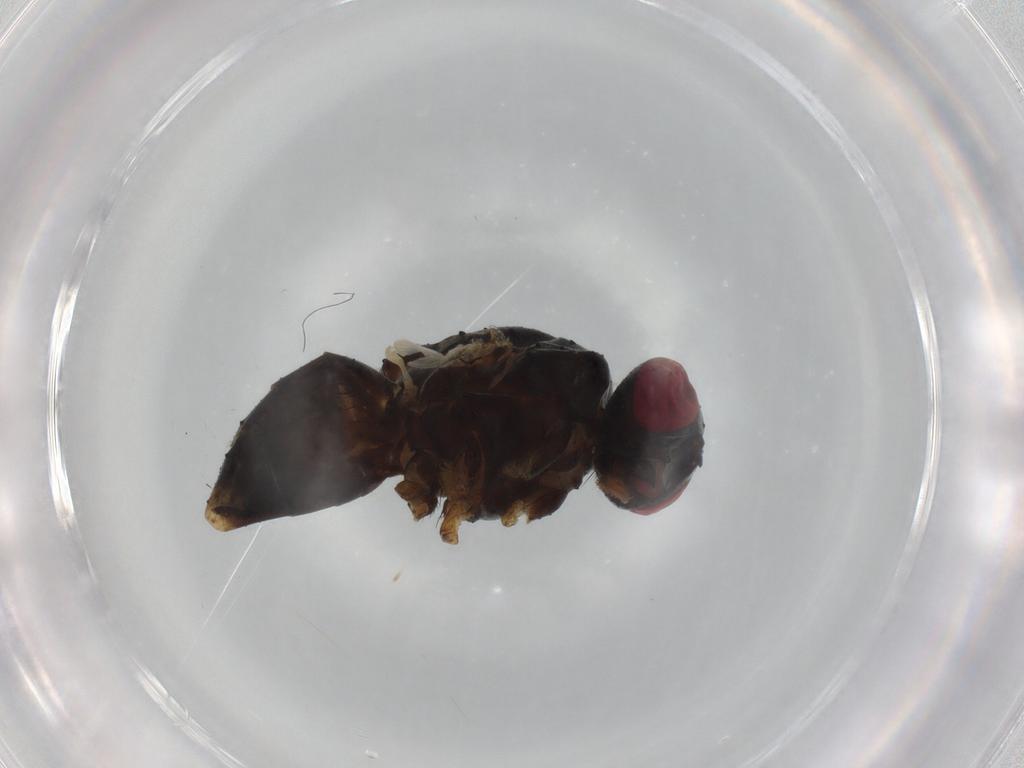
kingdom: Animalia
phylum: Arthropoda
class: Insecta
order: Diptera
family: Muscidae
